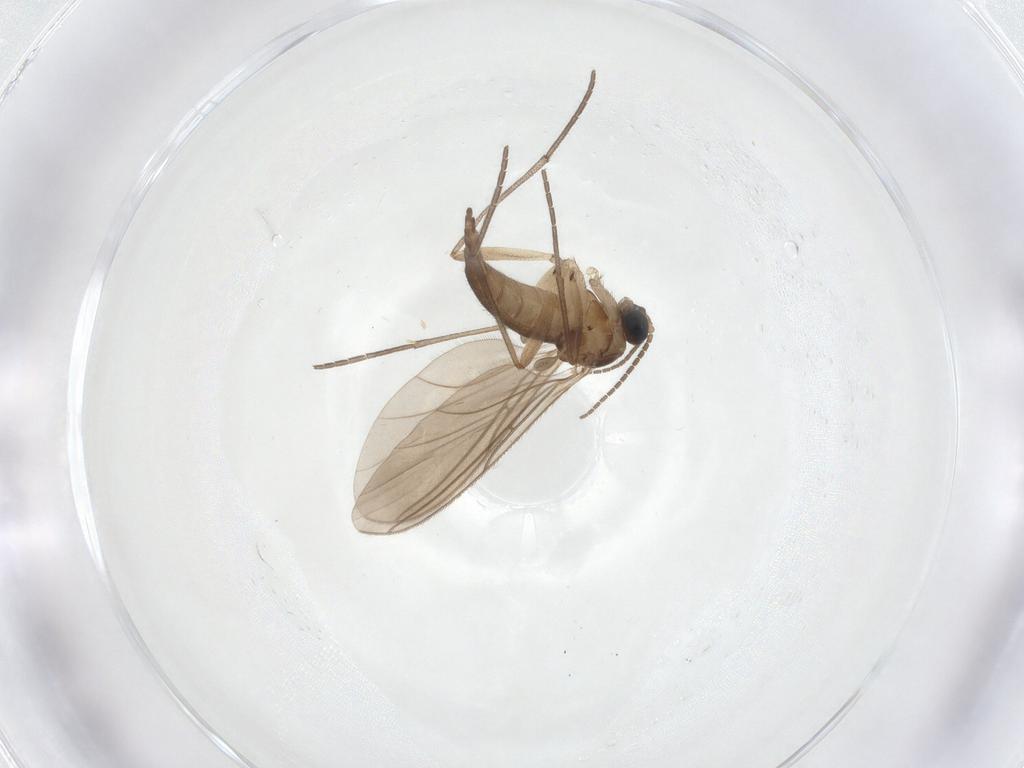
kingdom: Animalia
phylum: Arthropoda
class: Insecta
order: Diptera
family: Sciaridae
